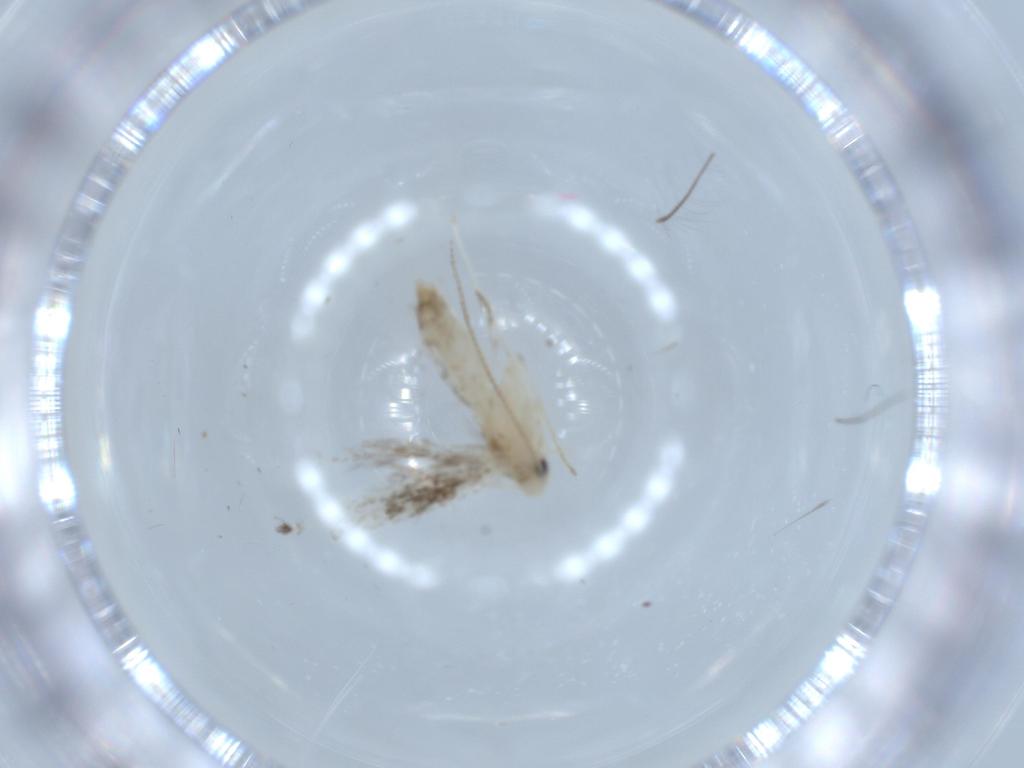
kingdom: Animalia
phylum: Arthropoda
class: Insecta
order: Lepidoptera
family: Gracillariidae
